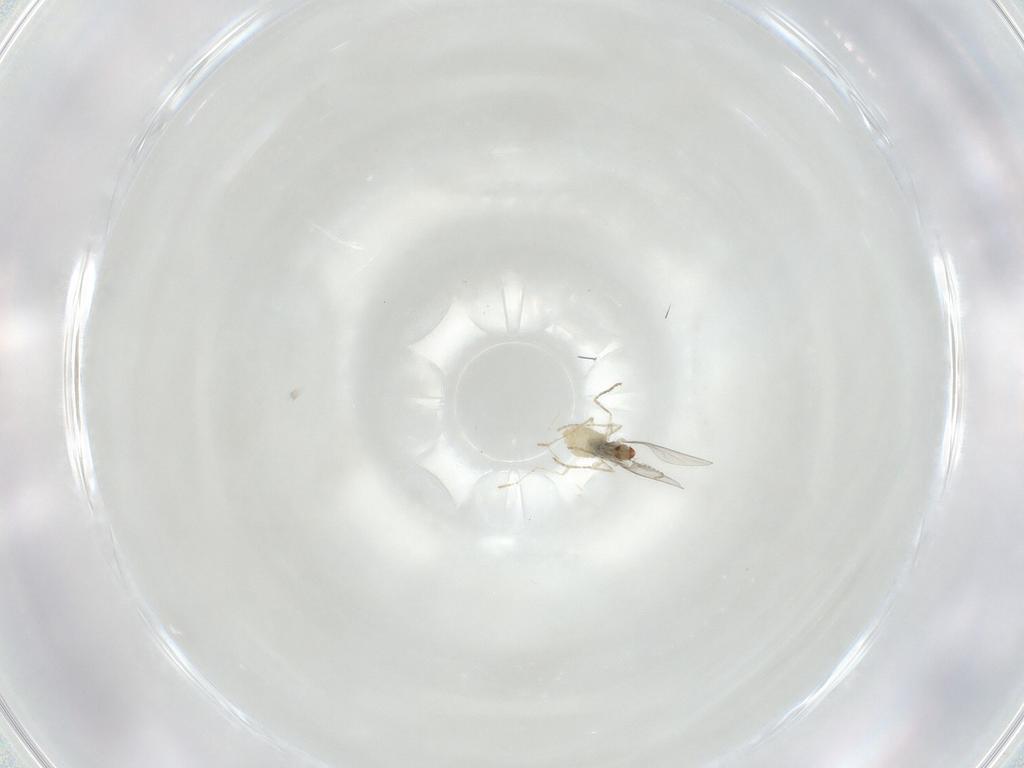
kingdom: Animalia
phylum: Arthropoda
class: Insecta
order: Diptera
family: Cecidomyiidae
